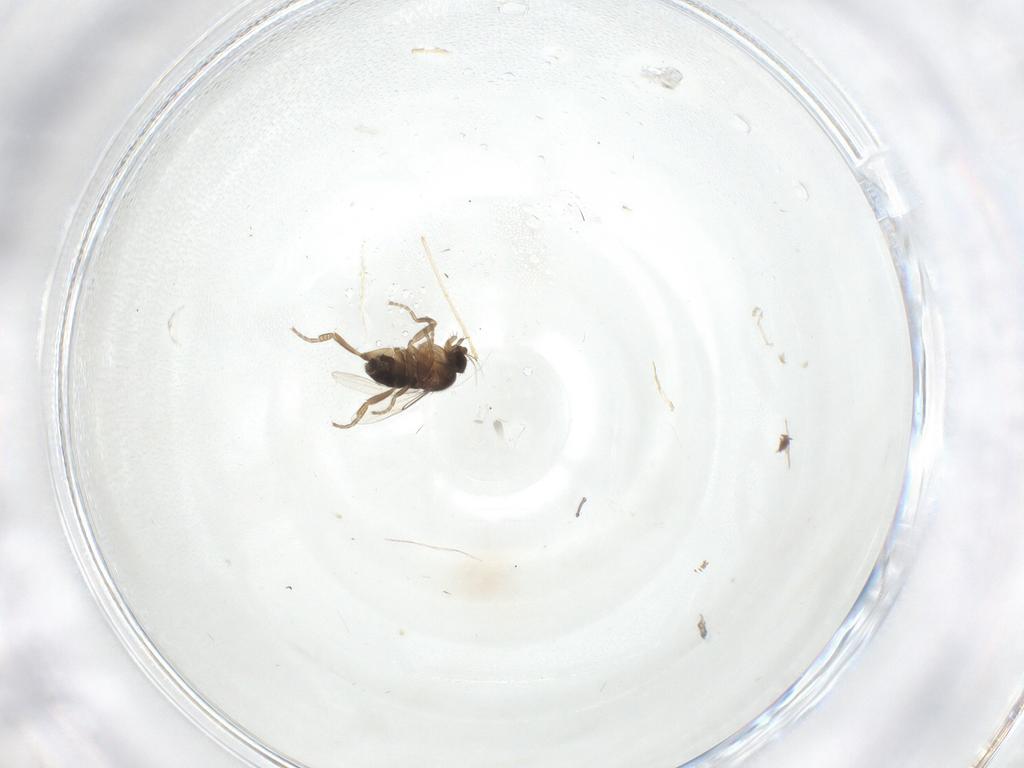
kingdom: Animalia
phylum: Arthropoda
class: Insecta
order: Diptera
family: Phoridae
